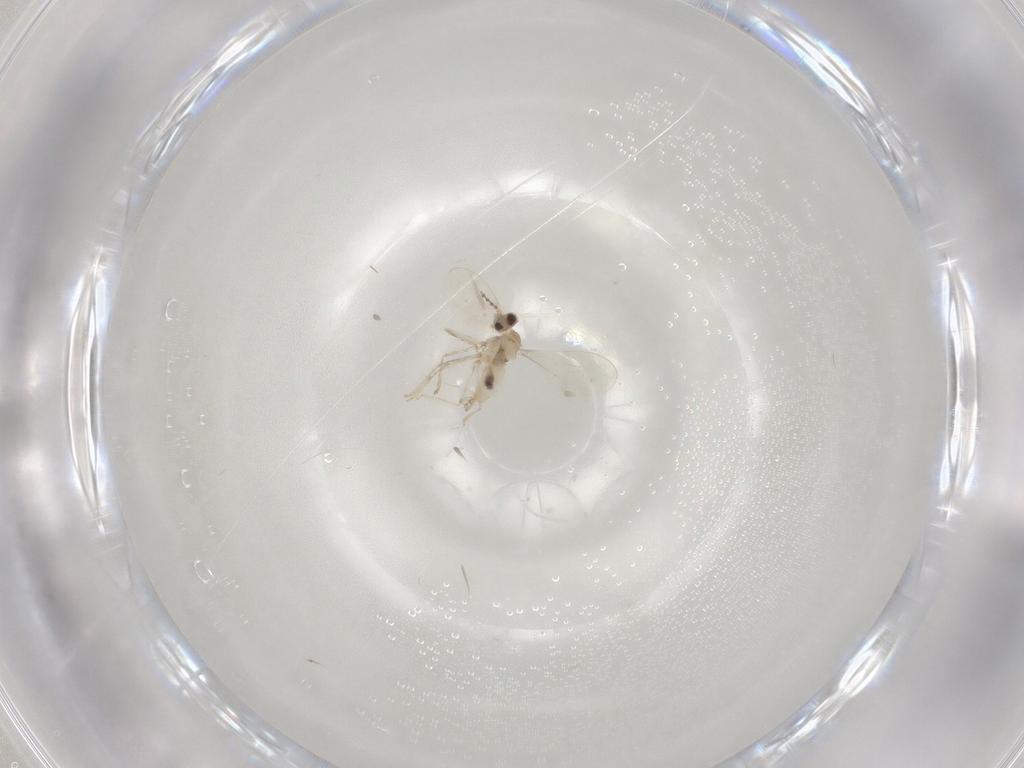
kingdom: Animalia
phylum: Arthropoda
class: Insecta
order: Diptera
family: Cecidomyiidae
